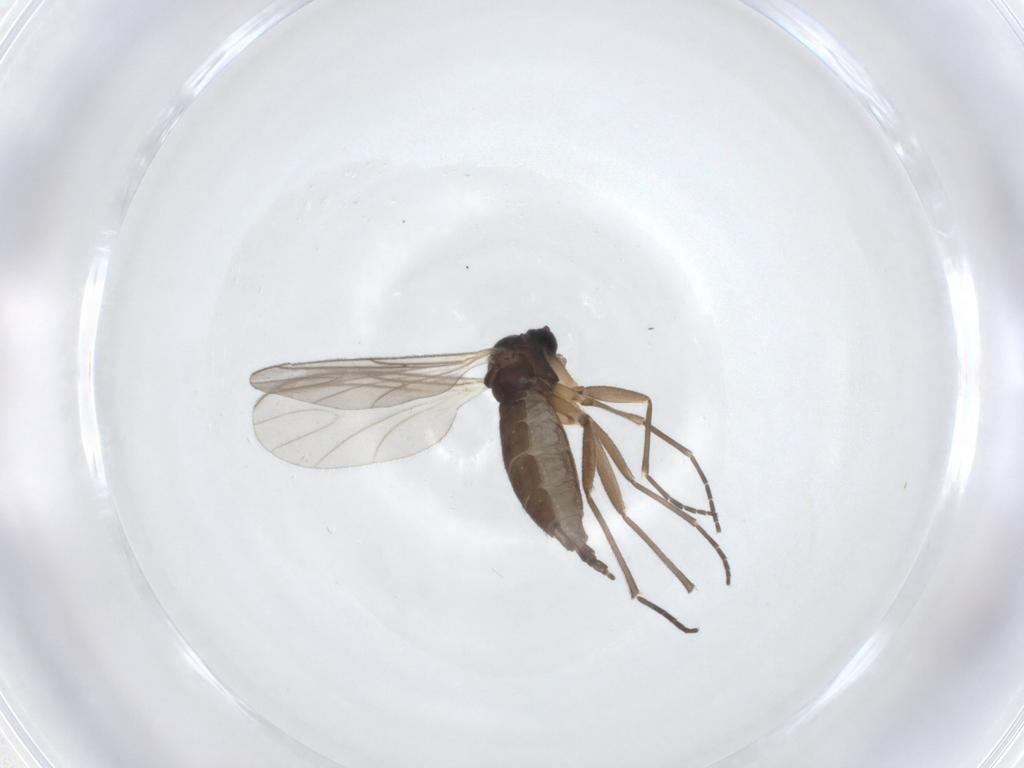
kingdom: Animalia
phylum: Arthropoda
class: Insecta
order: Diptera
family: Sciaridae
